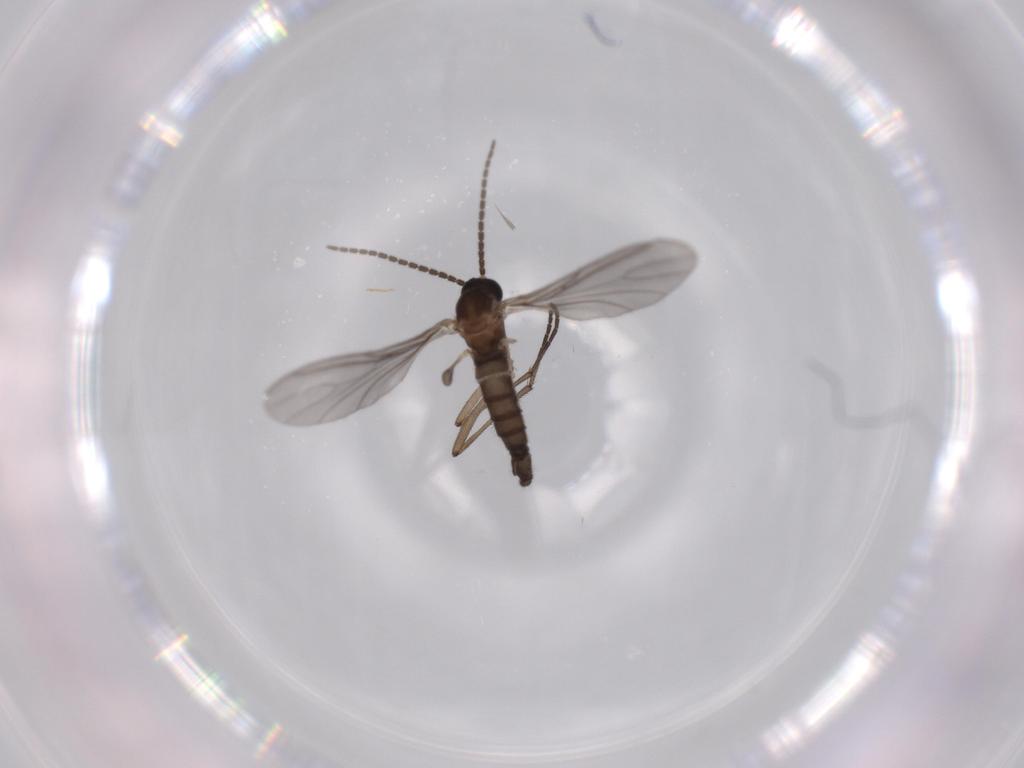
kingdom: Animalia
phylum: Arthropoda
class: Insecta
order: Diptera
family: Sciaridae
